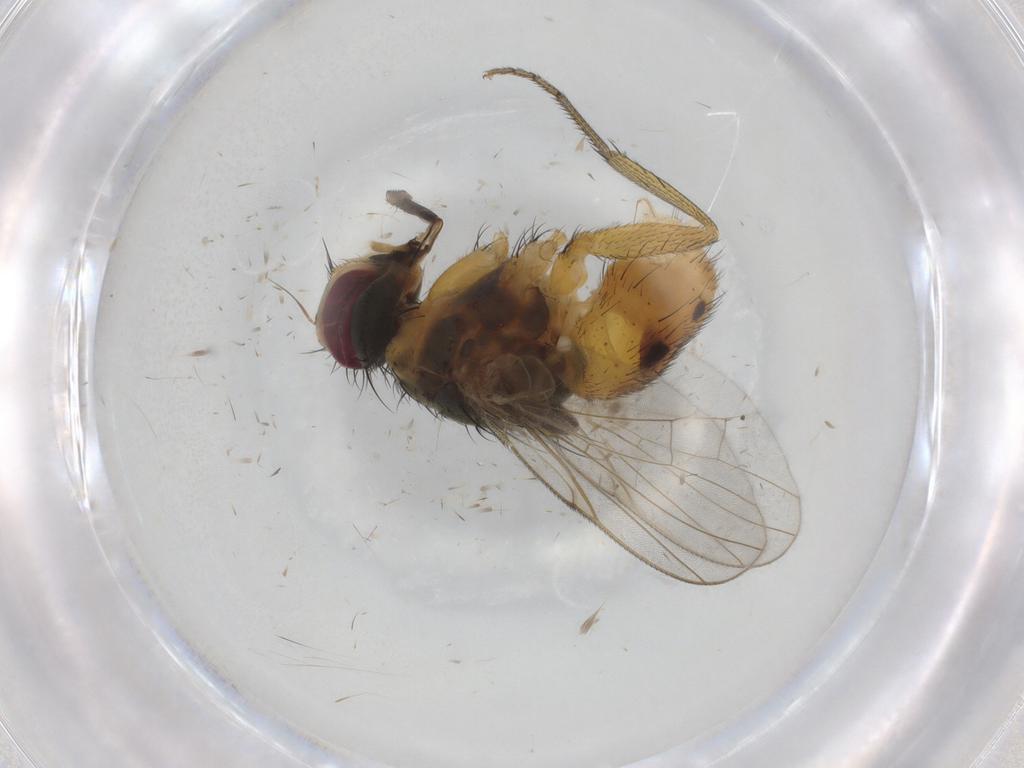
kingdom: Animalia
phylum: Arthropoda
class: Insecta
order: Diptera
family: Muscidae
